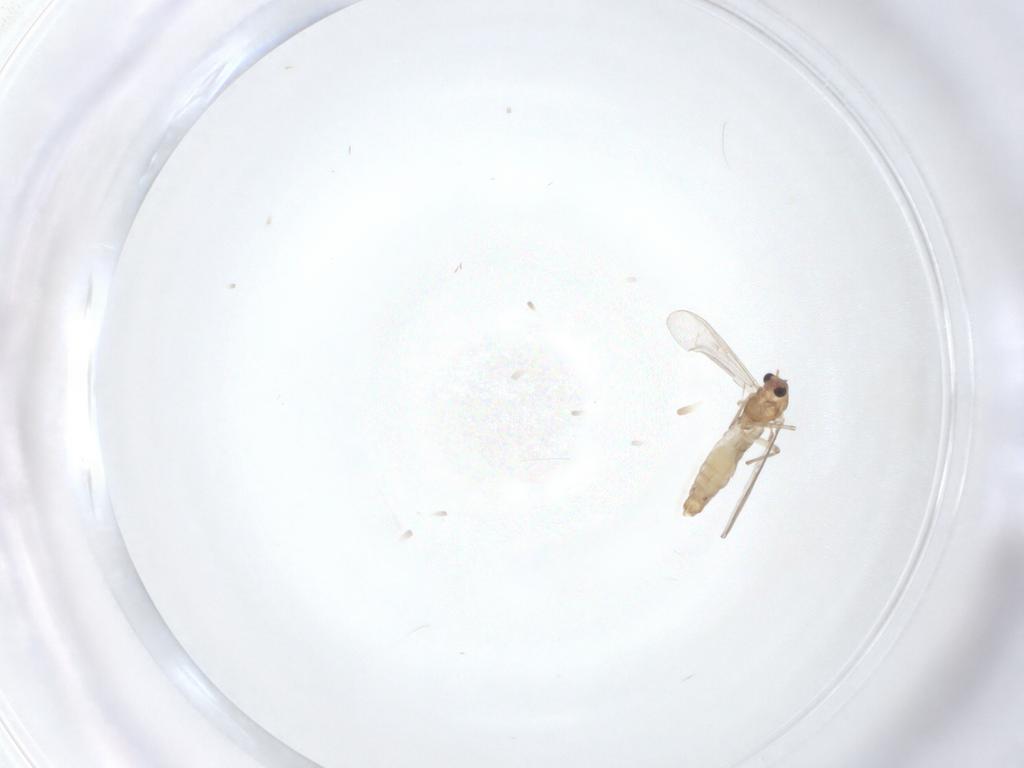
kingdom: Animalia
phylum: Arthropoda
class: Insecta
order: Diptera
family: Chironomidae
